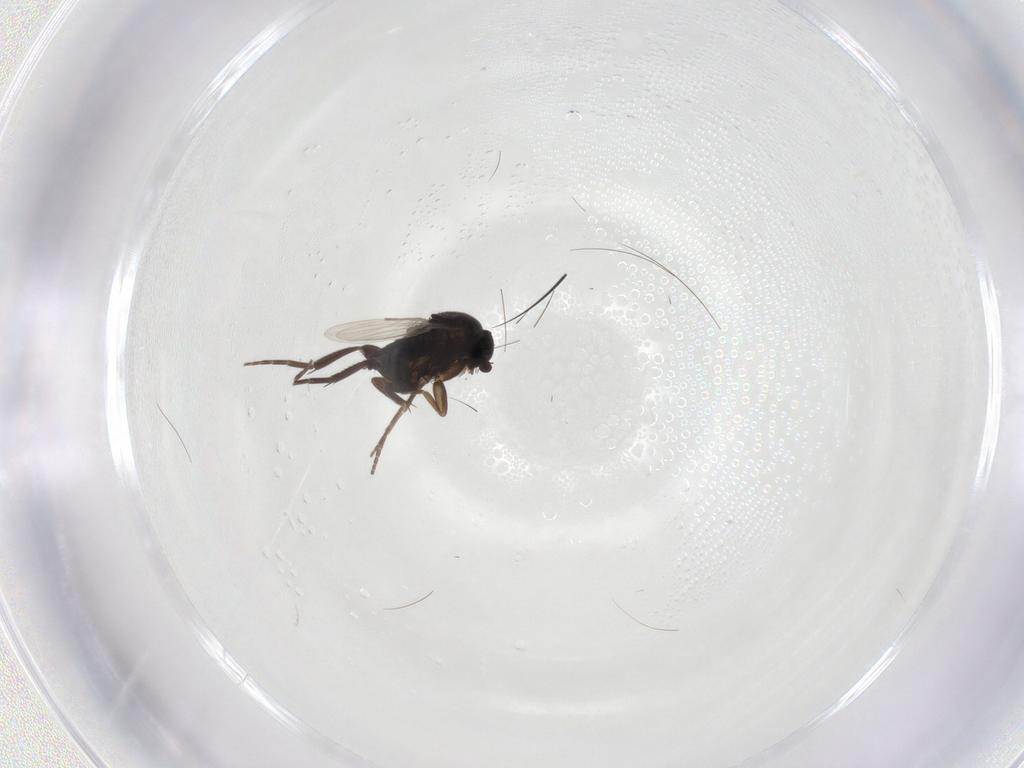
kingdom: Animalia
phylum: Arthropoda
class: Insecta
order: Diptera
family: Phoridae
